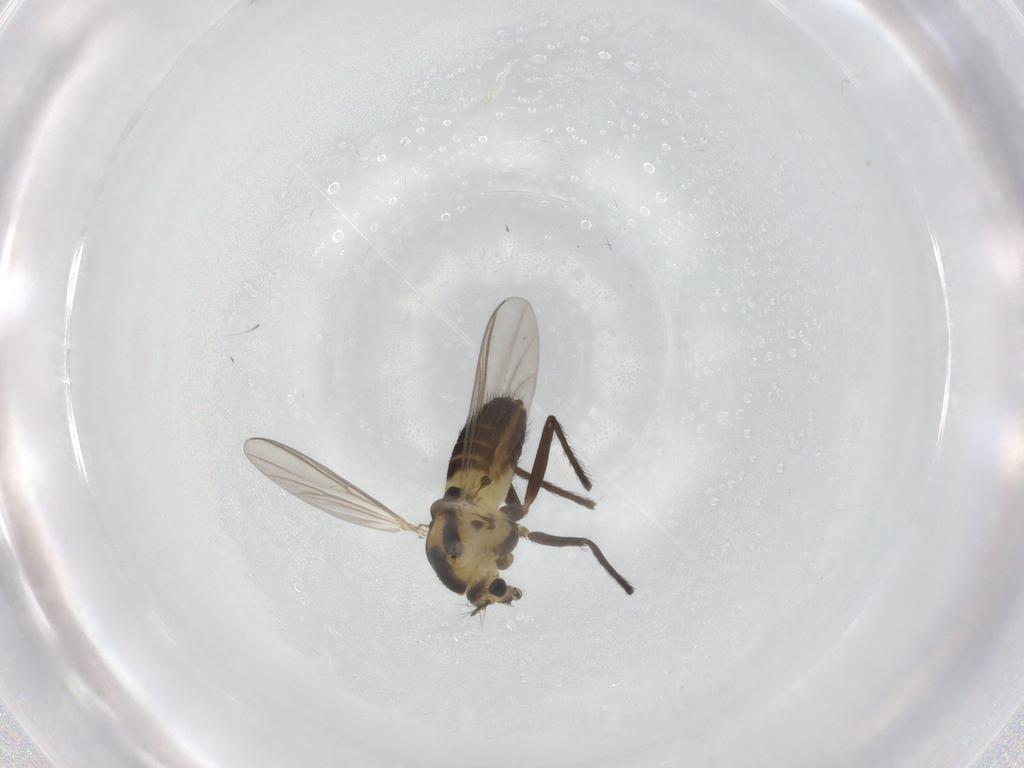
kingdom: Animalia
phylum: Arthropoda
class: Insecta
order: Diptera
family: Chironomidae
